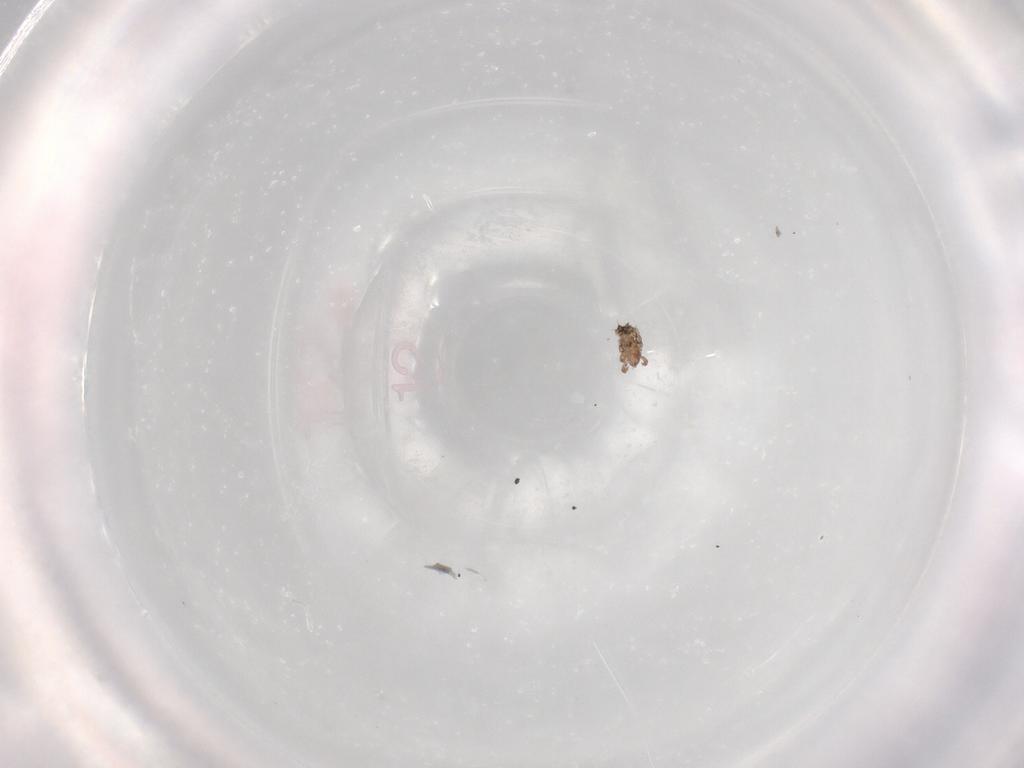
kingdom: Animalia
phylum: Arthropoda
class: Arachnida
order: Sarcoptiformes
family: Crotoniidae
